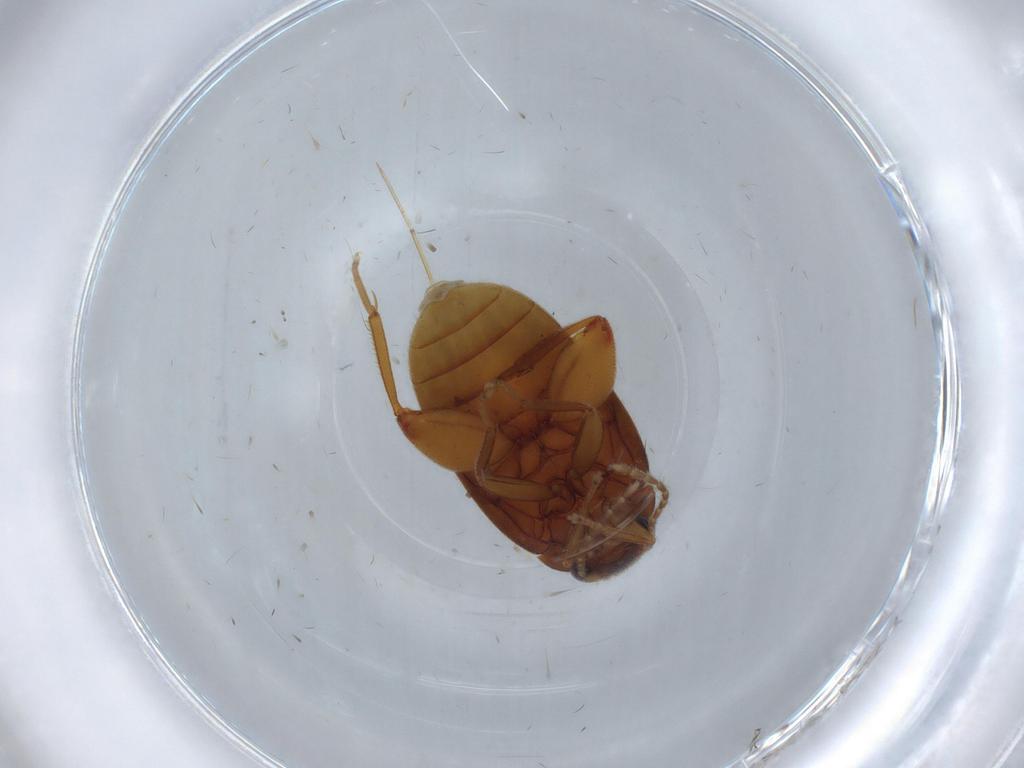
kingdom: Animalia
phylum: Arthropoda
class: Insecta
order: Coleoptera
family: Scirtidae
